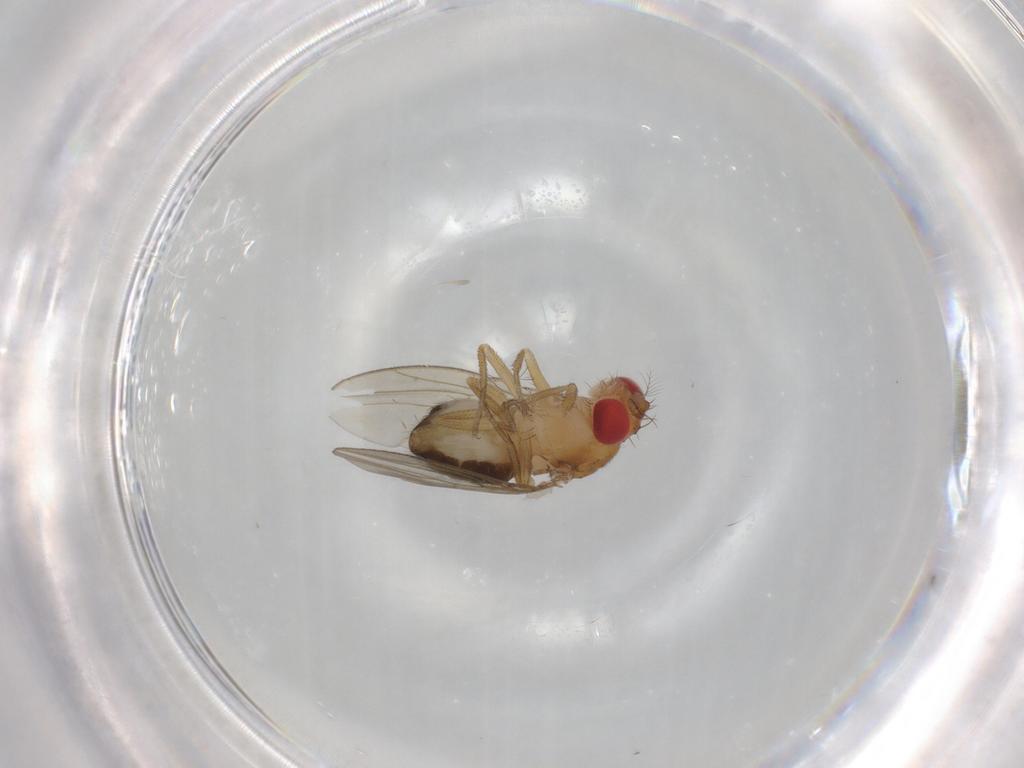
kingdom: Animalia
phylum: Arthropoda
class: Insecta
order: Diptera
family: Drosophilidae
